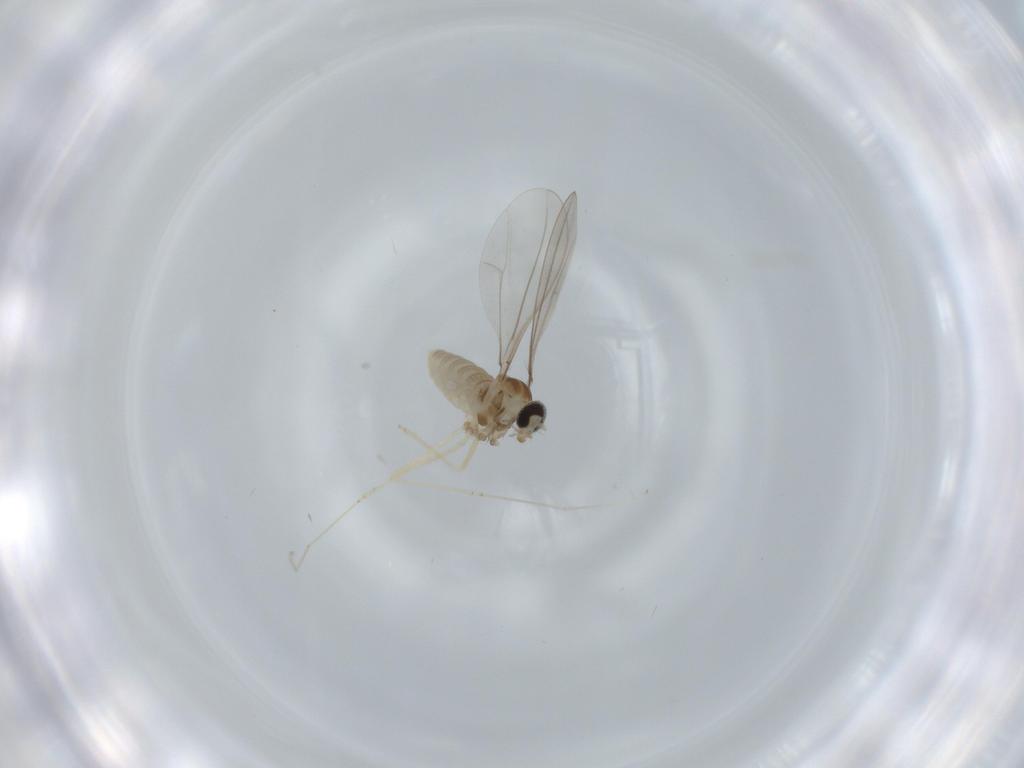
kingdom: Animalia
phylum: Arthropoda
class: Insecta
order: Diptera
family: Cecidomyiidae
